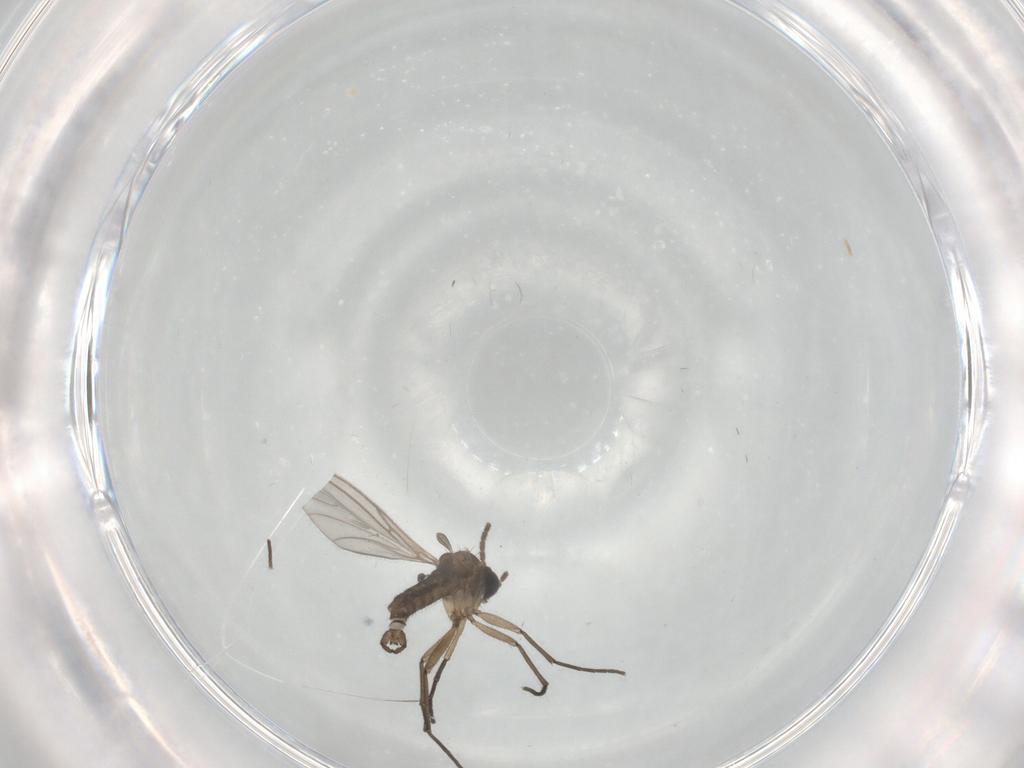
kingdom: Animalia
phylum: Arthropoda
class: Insecta
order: Diptera
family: Sciaridae
